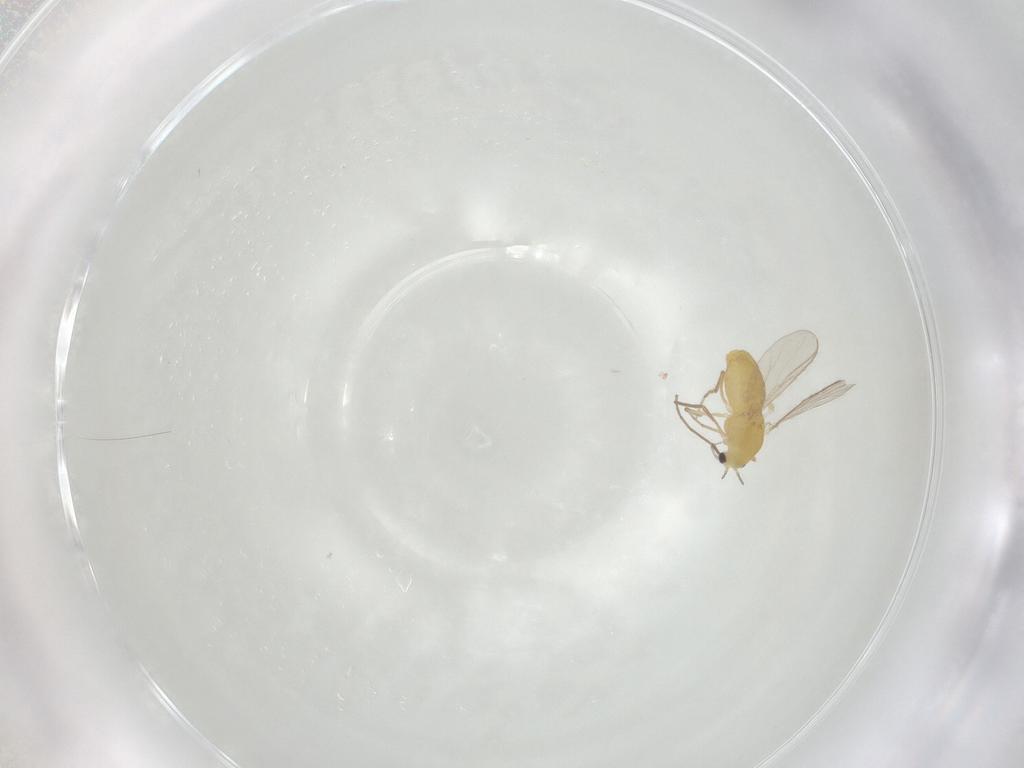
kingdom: Animalia
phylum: Arthropoda
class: Insecta
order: Diptera
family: Chironomidae
